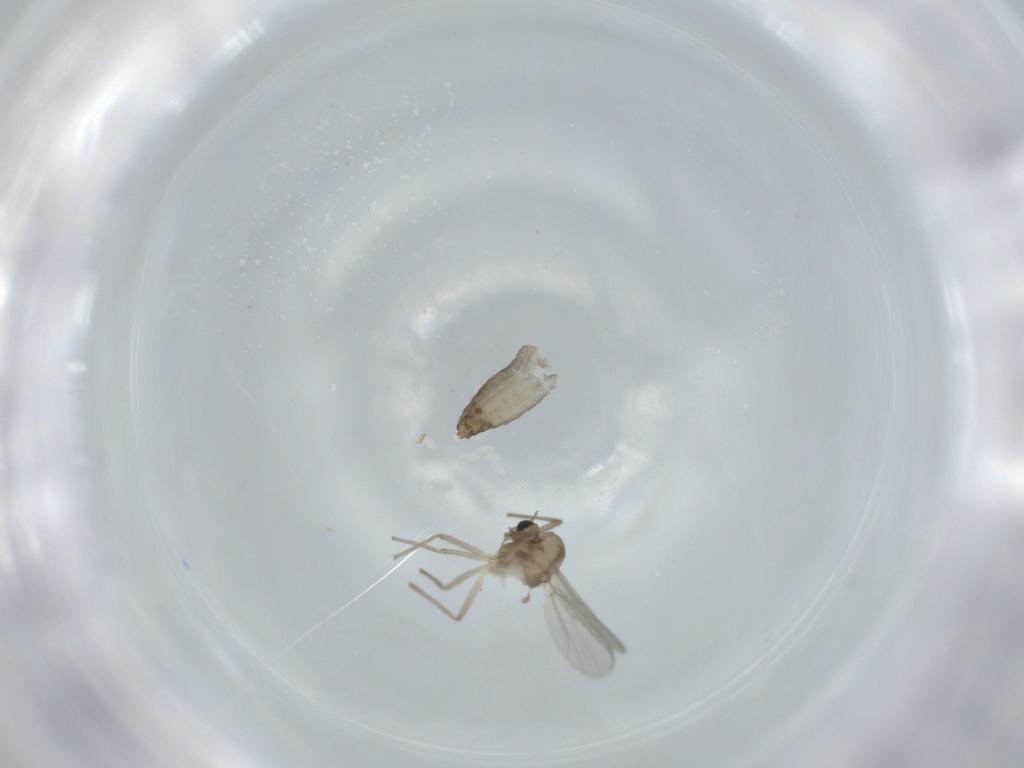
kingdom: Animalia
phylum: Arthropoda
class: Insecta
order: Diptera
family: Chironomidae
